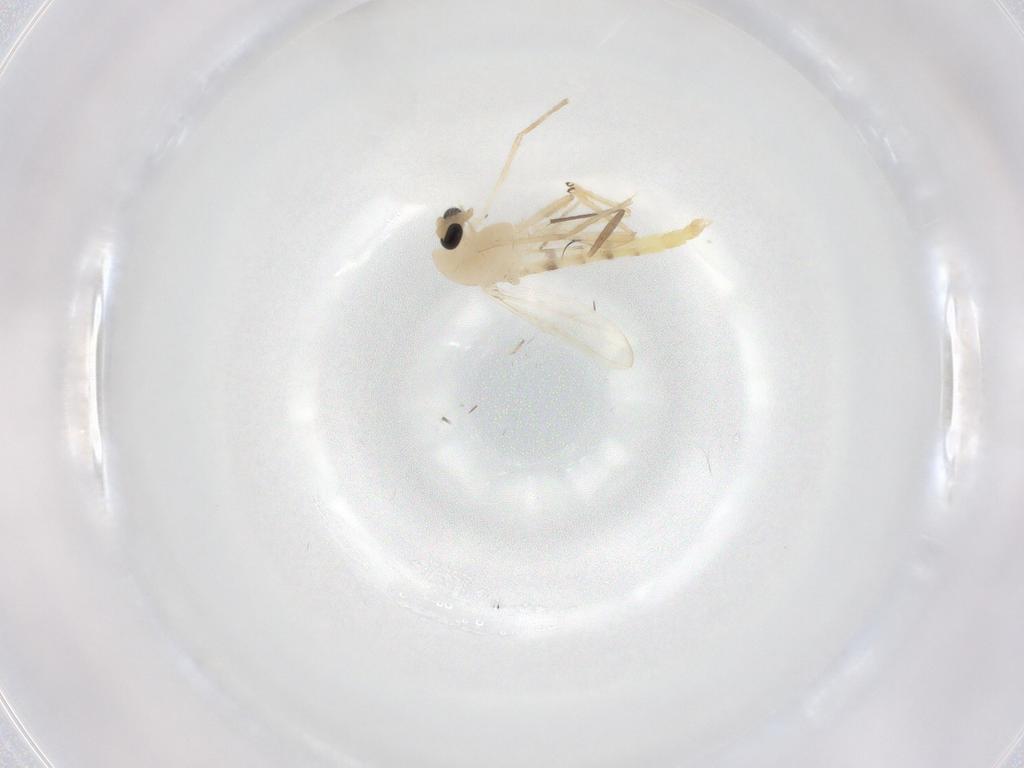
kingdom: Animalia
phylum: Arthropoda
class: Insecta
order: Diptera
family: Chironomidae
